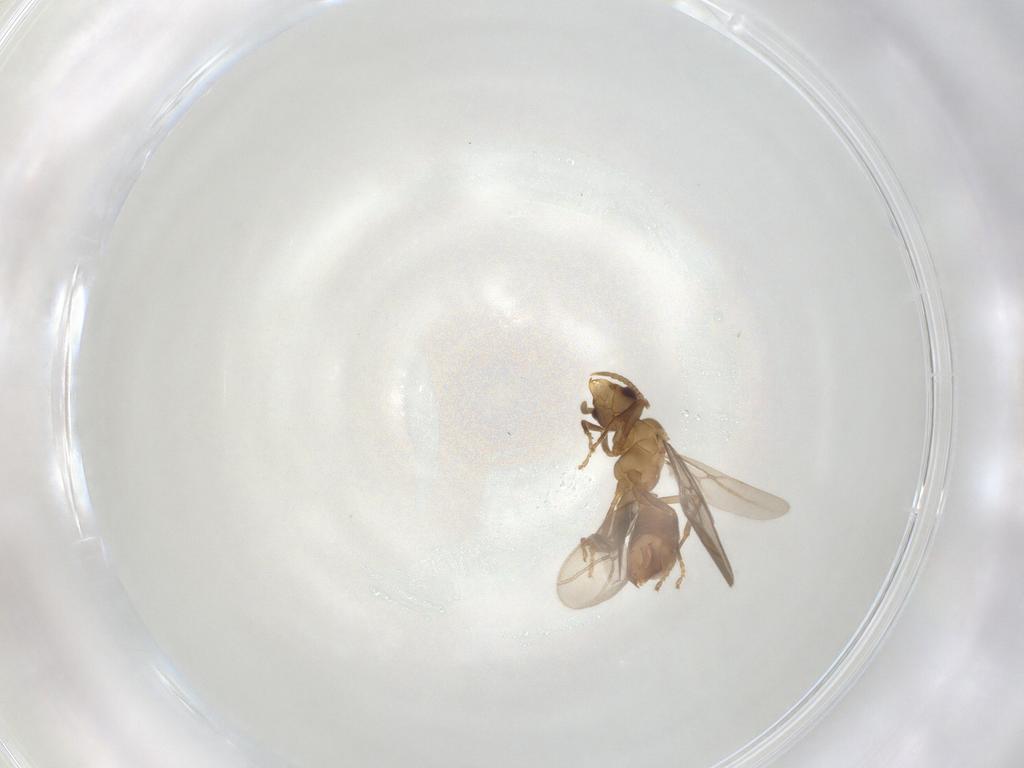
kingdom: Animalia
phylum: Arthropoda
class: Insecta
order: Hymenoptera
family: Formicidae
